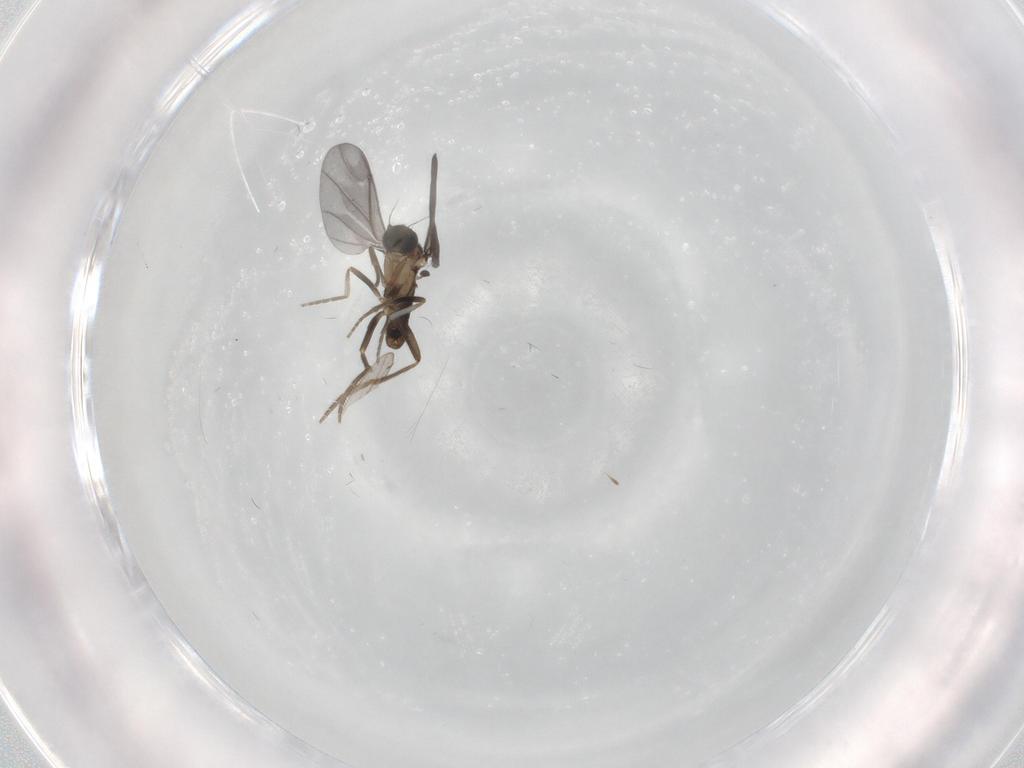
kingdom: Animalia
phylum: Arthropoda
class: Insecta
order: Diptera
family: Phoridae
